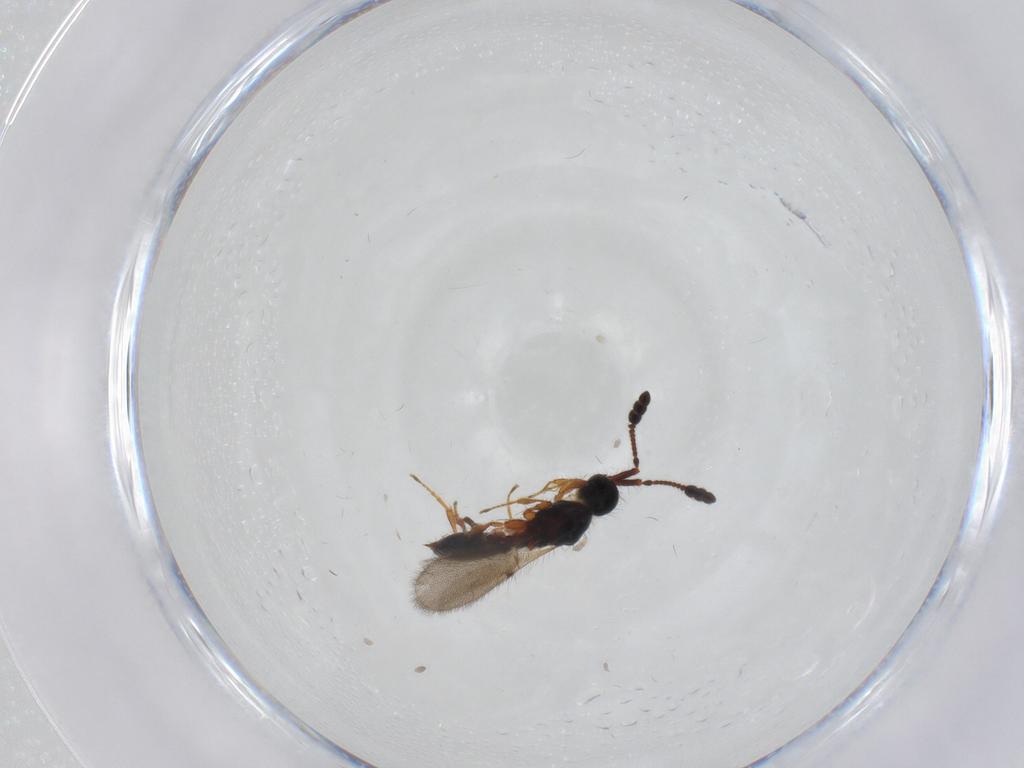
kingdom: Animalia
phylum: Arthropoda
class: Insecta
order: Hymenoptera
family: Diapriidae
